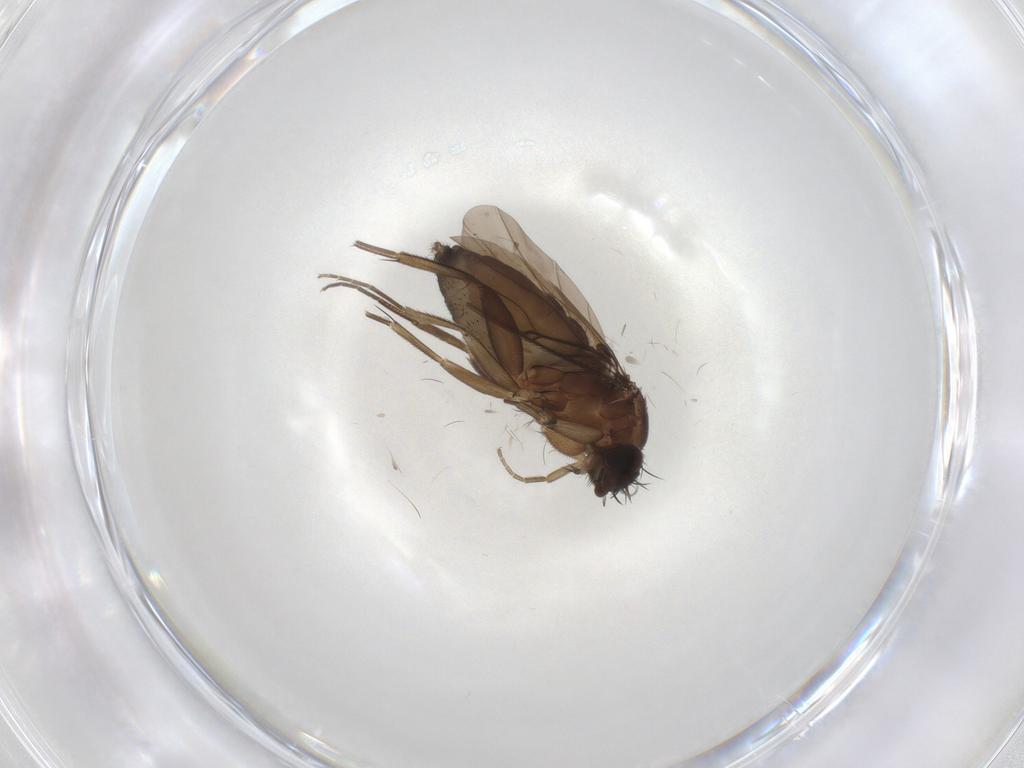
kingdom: Animalia
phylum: Arthropoda
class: Insecta
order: Diptera
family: Phoridae
